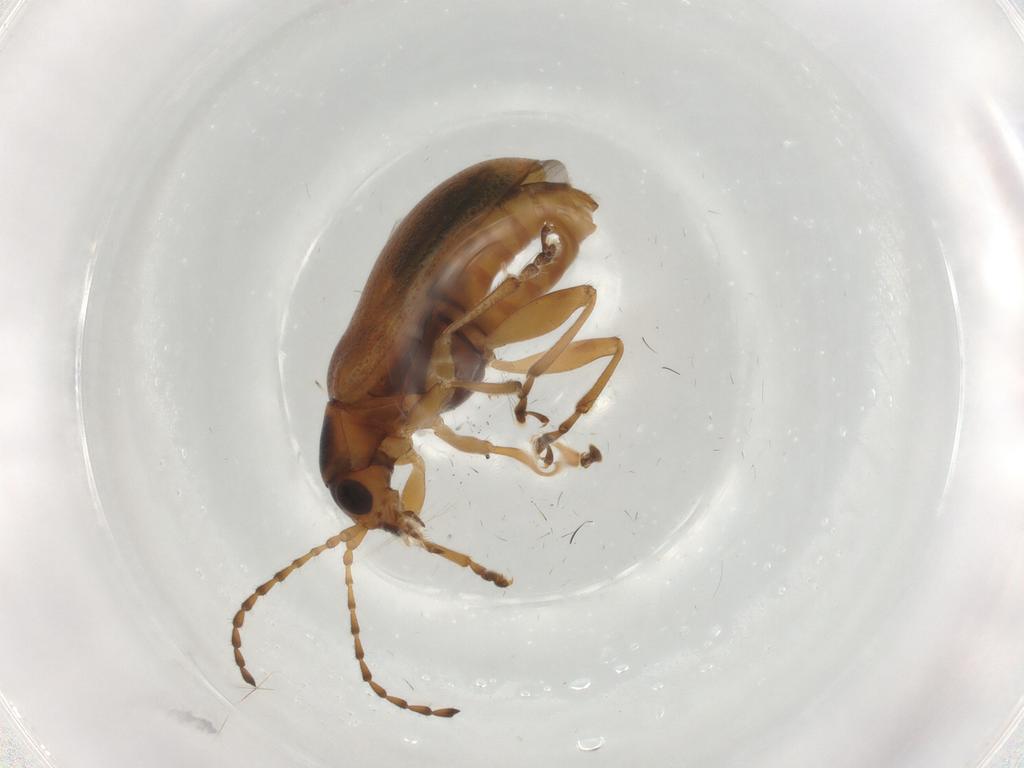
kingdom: Animalia
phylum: Arthropoda
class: Insecta
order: Coleoptera
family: Chrysomelidae
